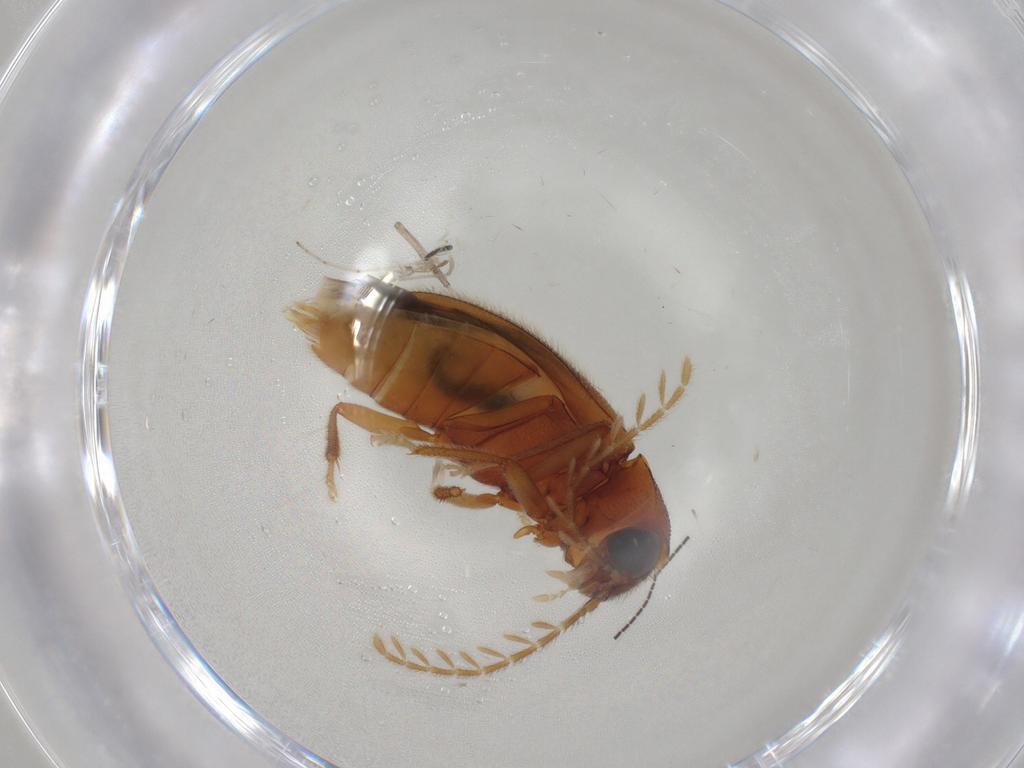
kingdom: Animalia
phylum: Arthropoda
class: Insecta
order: Coleoptera
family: Ptilodactylidae
